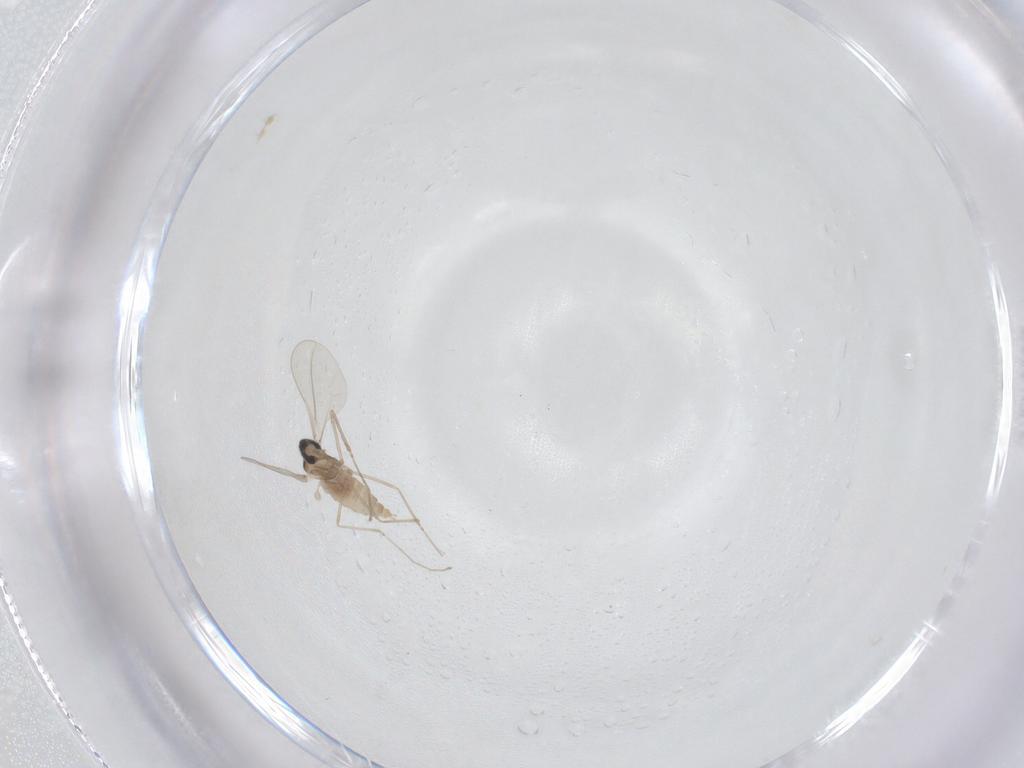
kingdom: Animalia
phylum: Arthropoda
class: Insecta
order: Diptera
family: Chironomidae
